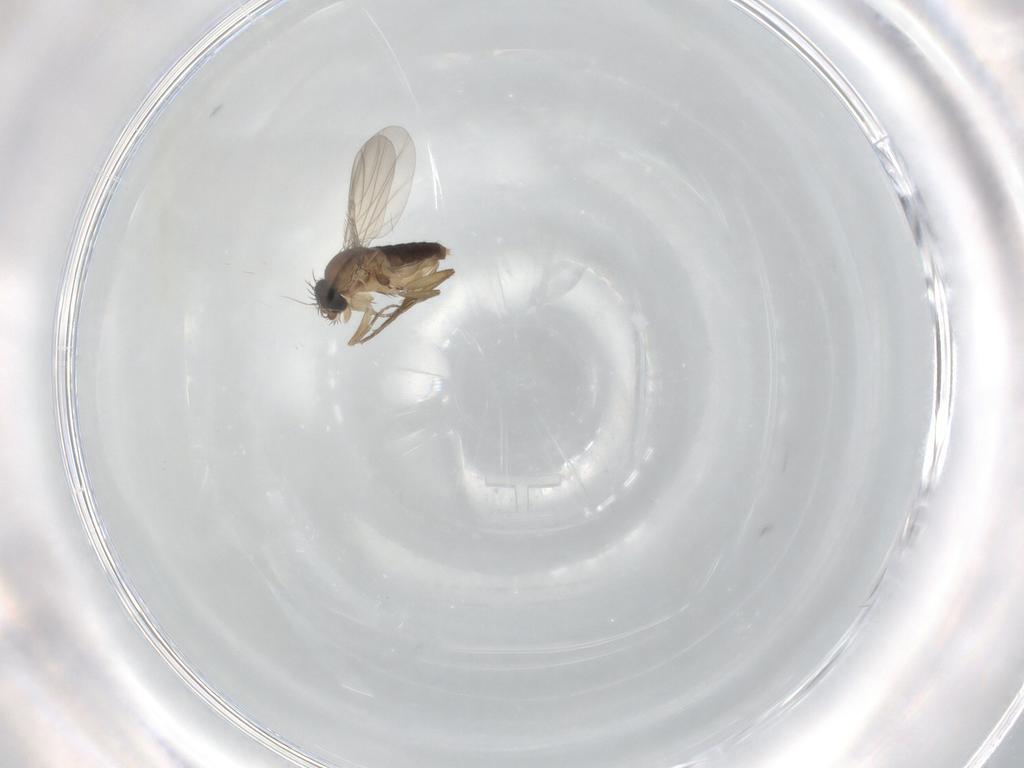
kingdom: Animalia
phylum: Arthropoda
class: Insecta
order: Diptera
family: Phoridae
